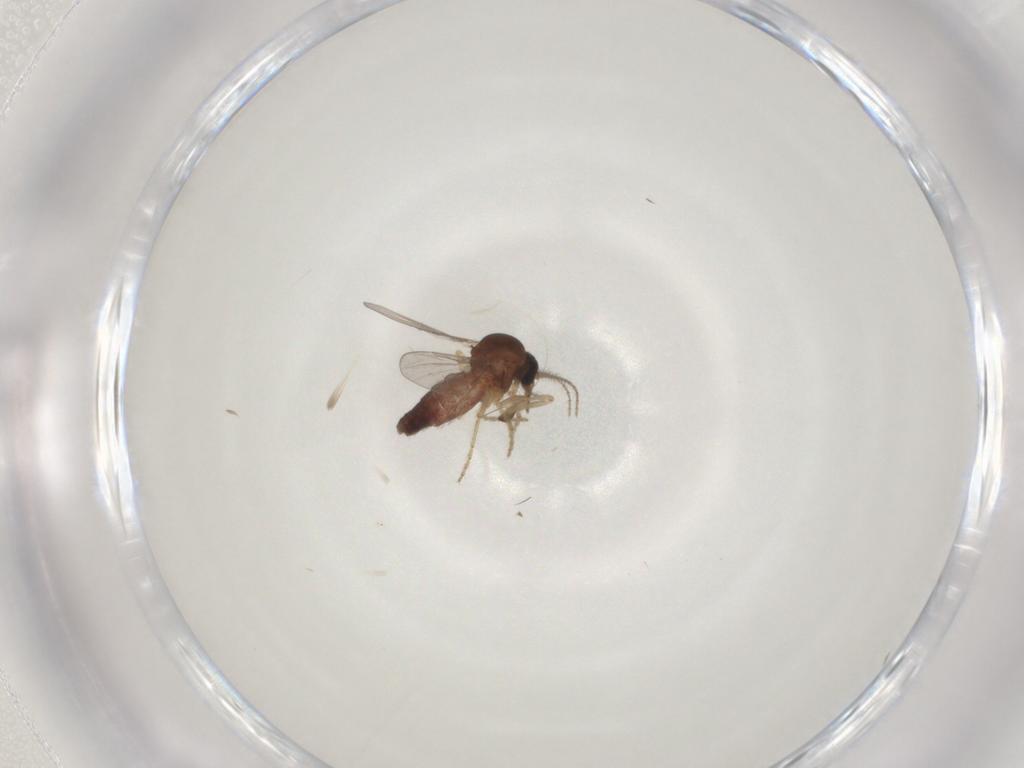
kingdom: Animalia
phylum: Arthropoda
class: Insecta
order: Diptera
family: Ceratopogonidae
